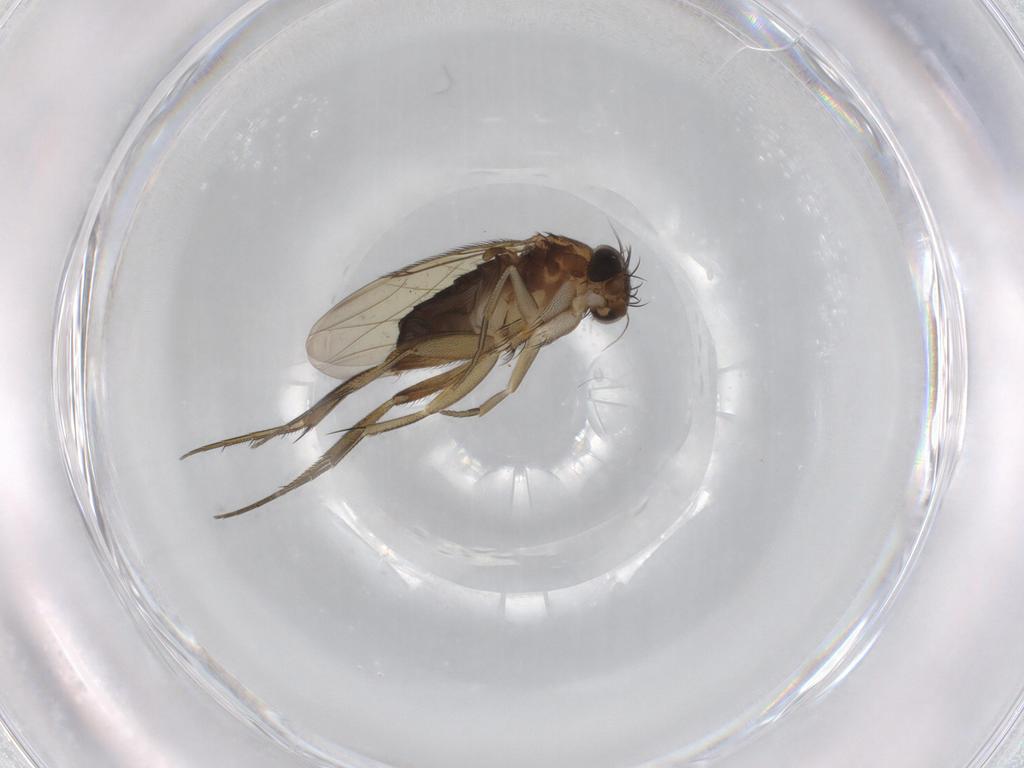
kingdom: Animalia
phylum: Arthropoda
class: Insecta
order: Diptera
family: Phoridae
